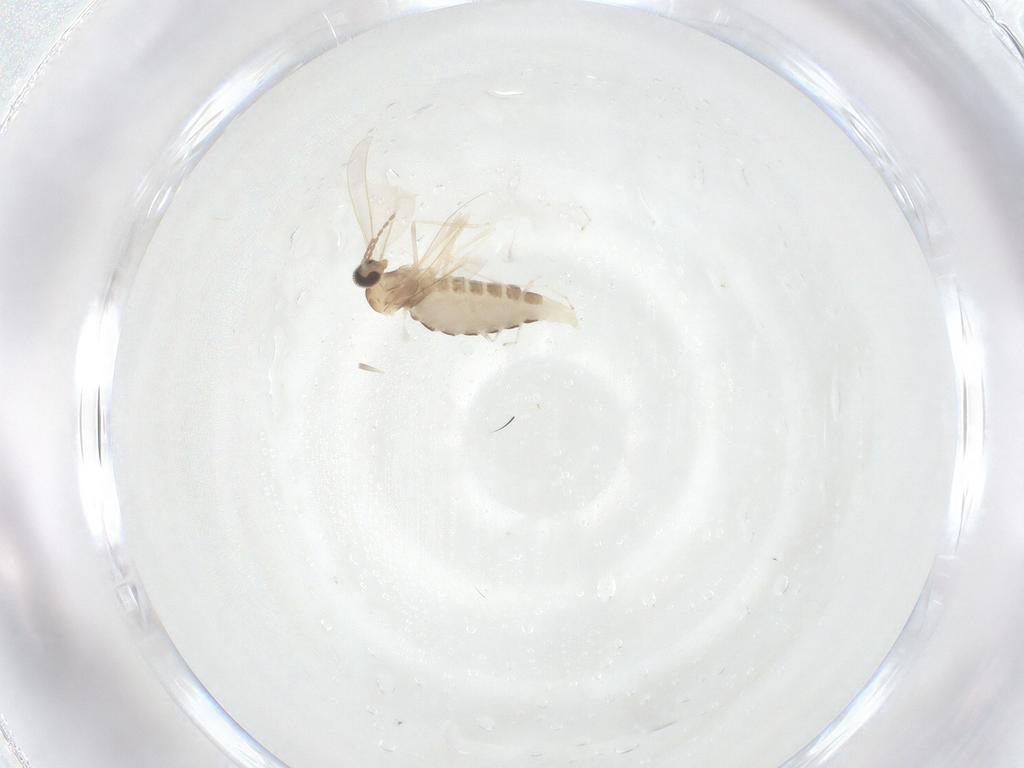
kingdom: Animalia
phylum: Arthropoda
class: Insecta
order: Diptera
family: Cecidomyiidae
